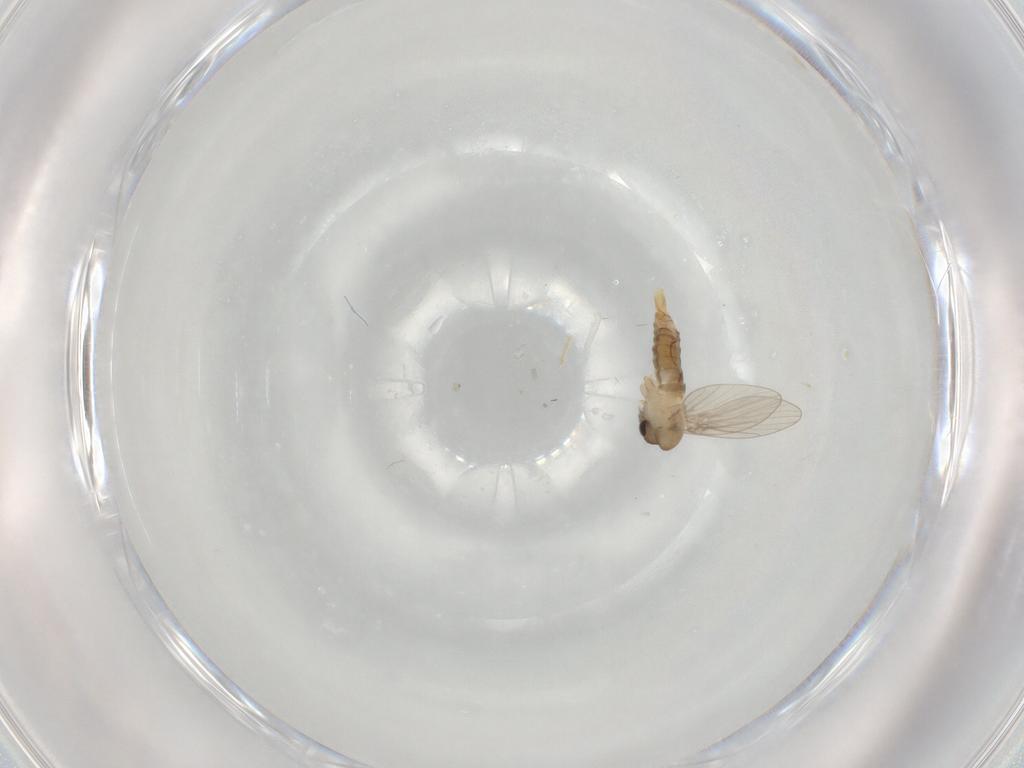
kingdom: Animalia
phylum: Arthropoda
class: Insecta
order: Diptera
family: Psychodidae
